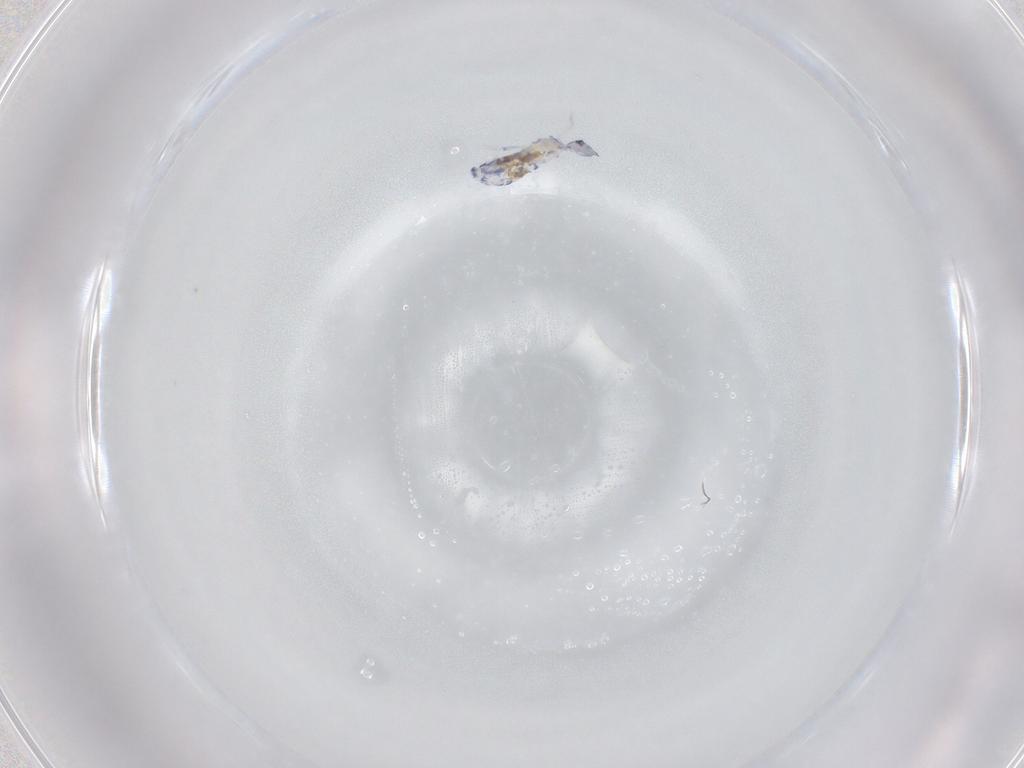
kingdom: Animalia
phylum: Arthropoda
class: Collembola
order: Entomobryomorpha
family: Entomobryidae
